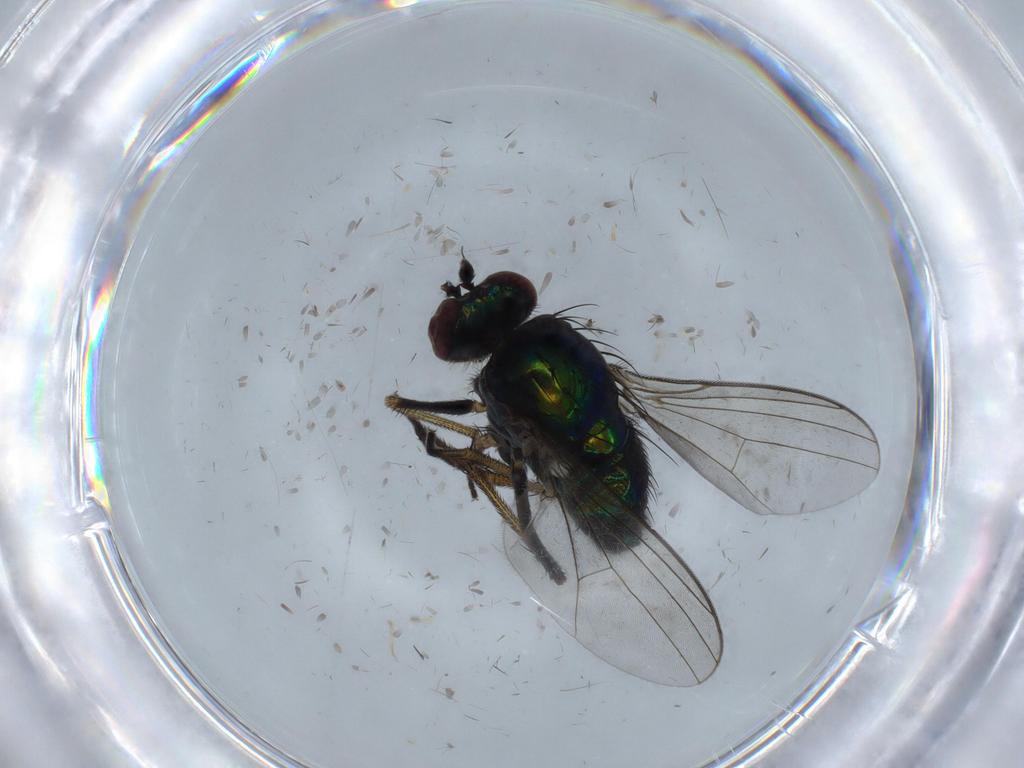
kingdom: Animalia
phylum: Arthropoda
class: Insecta
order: Diptera
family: Dolichopodidae
